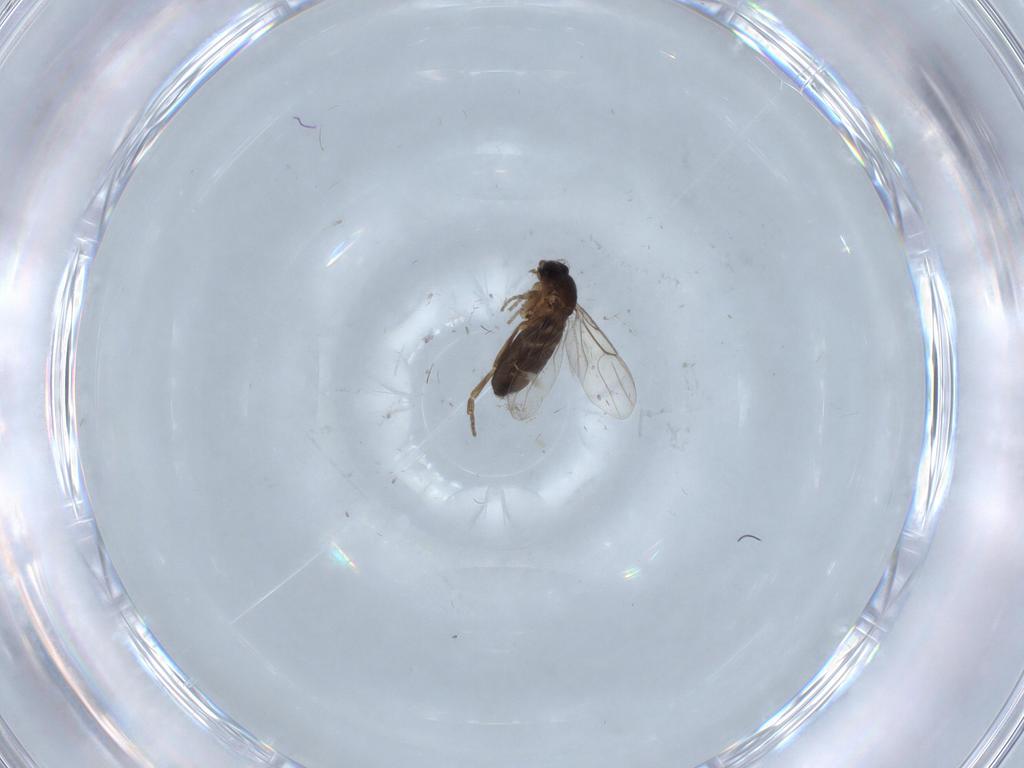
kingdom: Animalia
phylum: Arthropoda
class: Insecta
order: Diptera
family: Phoridae
